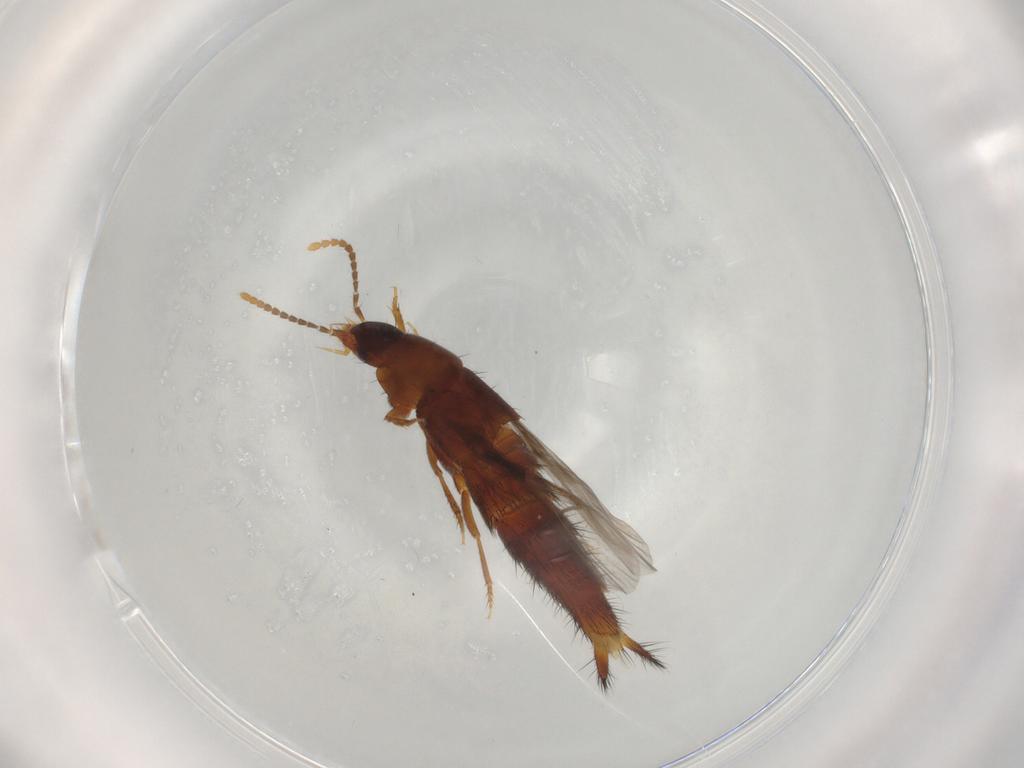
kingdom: Animalia
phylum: Arthropoda
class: Insecta
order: Coleoptera
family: Staphylinidae
